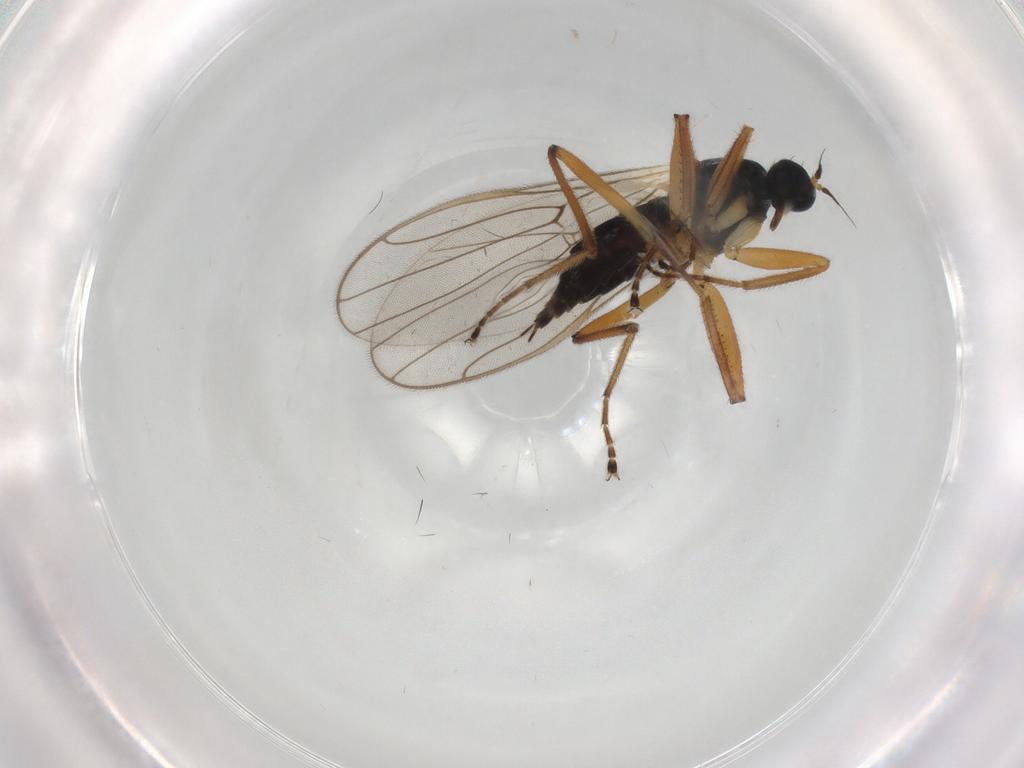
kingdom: Animalia
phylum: Arthropoda
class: Insecta
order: Diptera
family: Hybotidae
